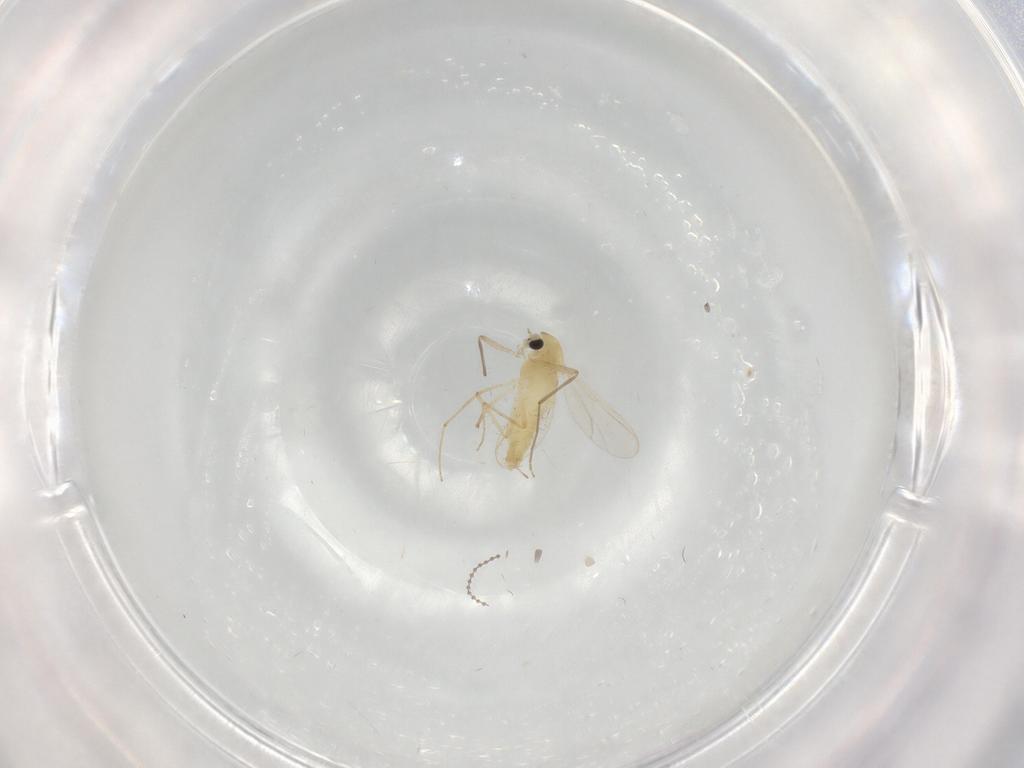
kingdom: Animalia
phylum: Arthropoda
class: Insecta
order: Diptera
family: Chironomidae
